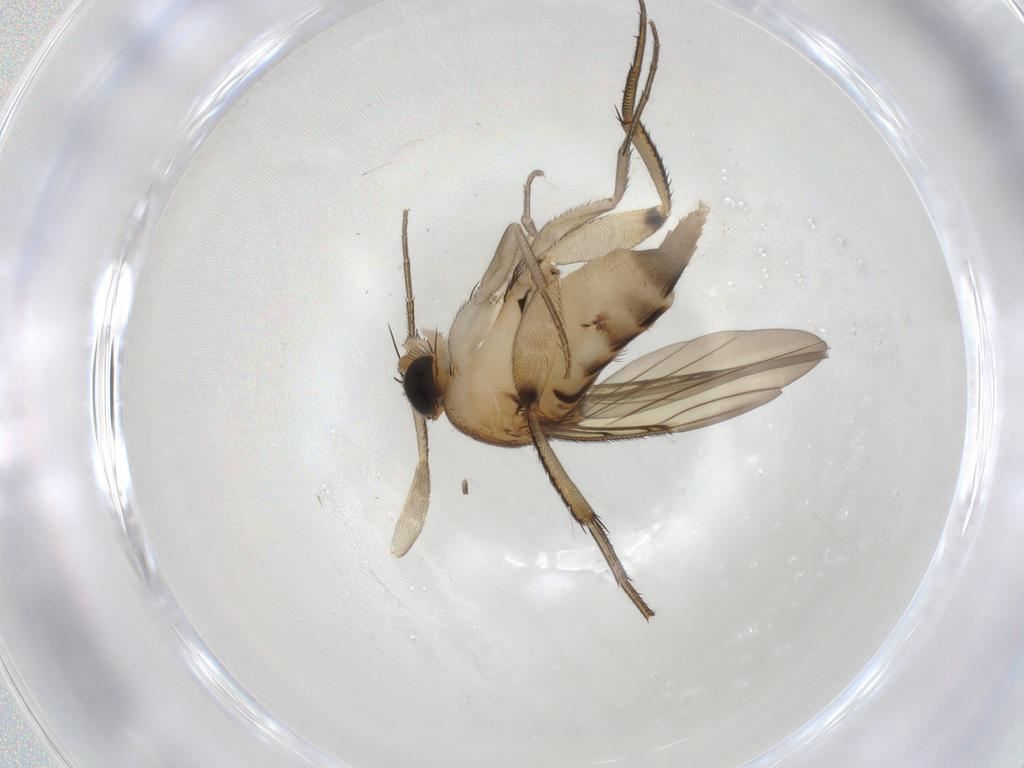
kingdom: Animalia
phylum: Arthropoda
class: Insecta
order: Diptera
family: Phoridae
